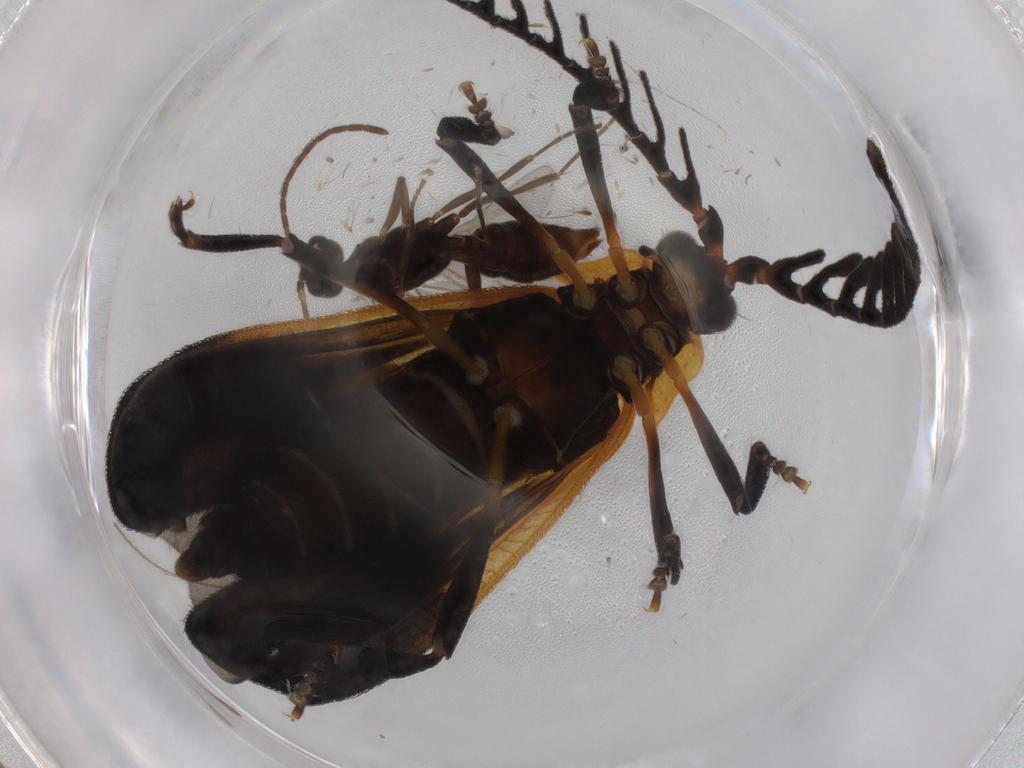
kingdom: Animalia
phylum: Arthropoda
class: Insecta
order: Hymenoptera
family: Formicidae
